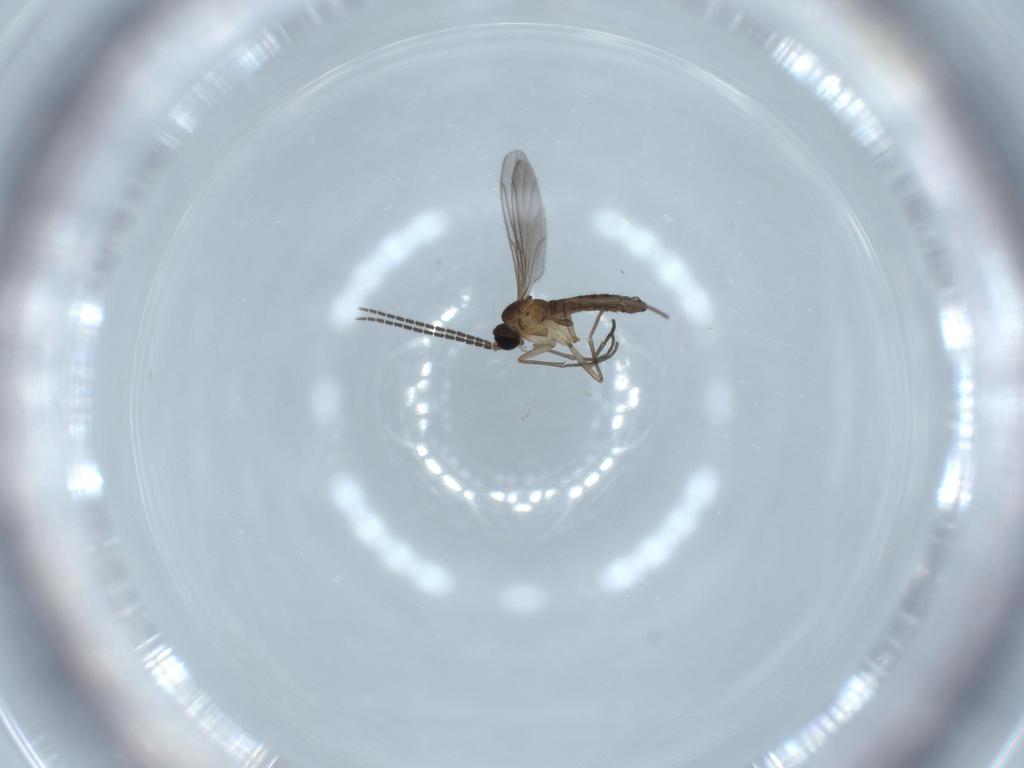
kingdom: Animalia
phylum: Arthropoda
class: Insecta
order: Diptera
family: Sciaridae
